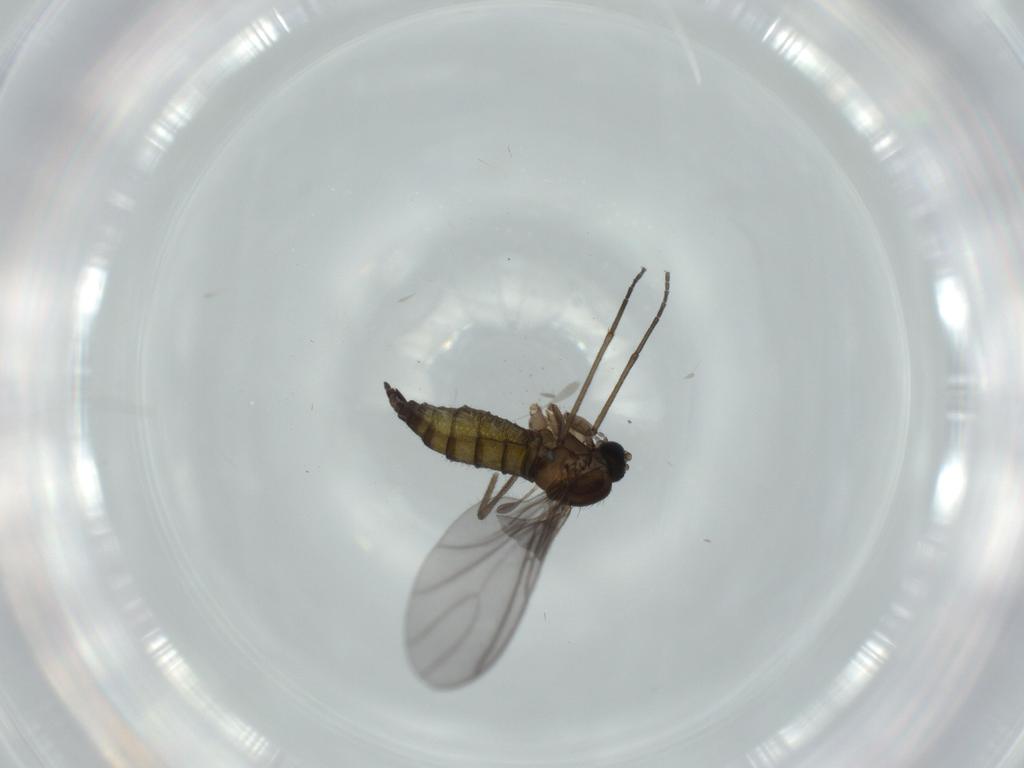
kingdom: Animalia
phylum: Arthropoda
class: Insecta
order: Diptera
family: Sciaridae
